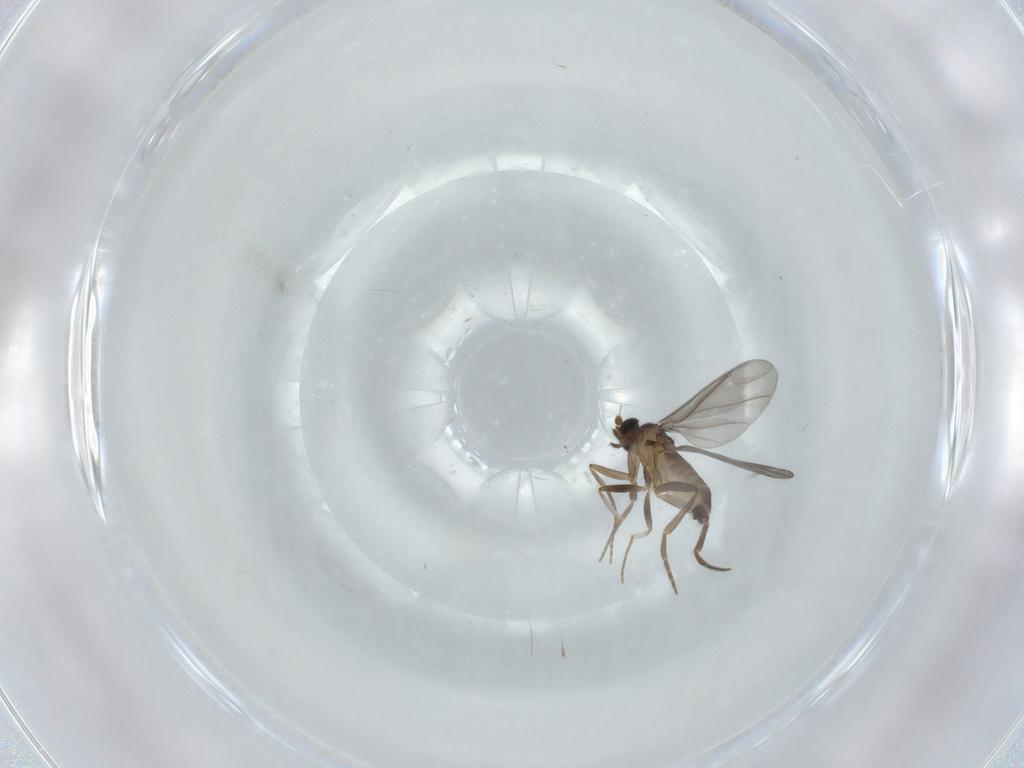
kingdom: Animalia
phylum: Arthropoda
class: Insecta
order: Diptera
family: Phoridae
